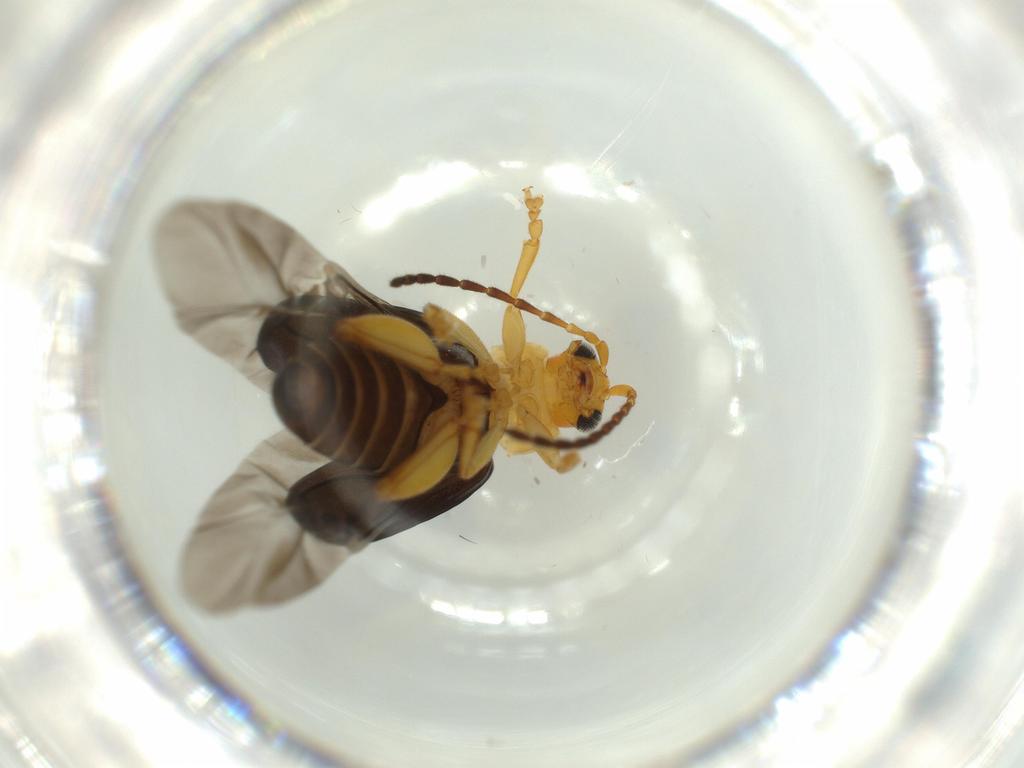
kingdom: Animalia
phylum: Arthropoda
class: Insecta
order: Coleoptera
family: Chrysomelidae
